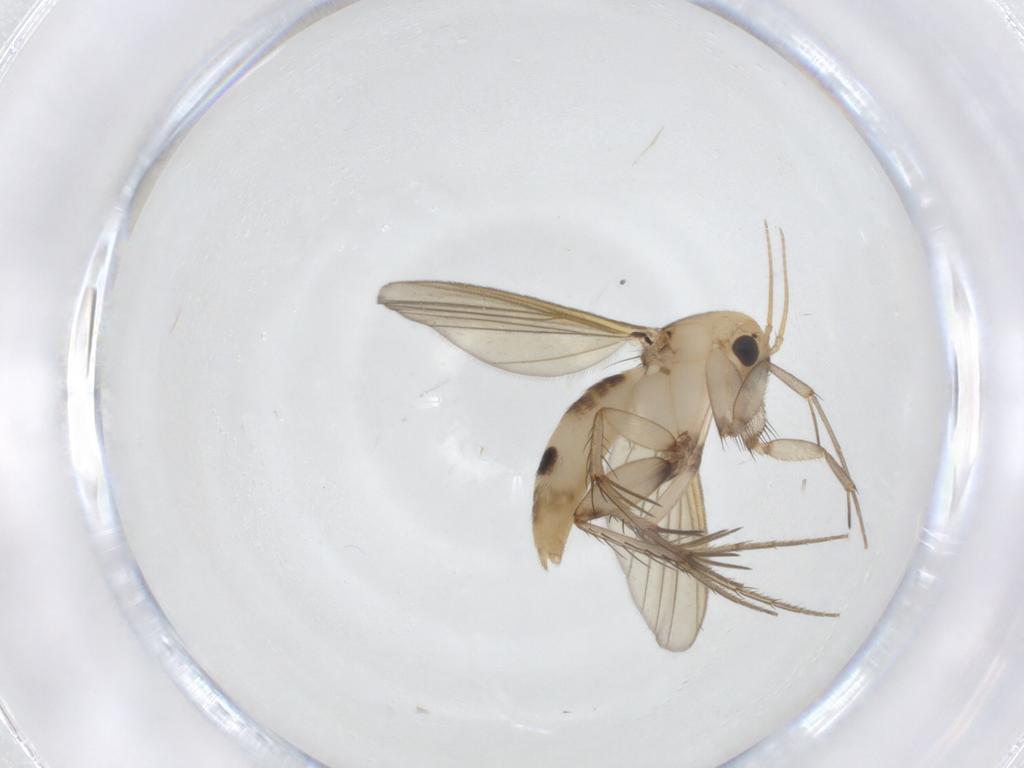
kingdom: Animalia
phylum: Arthropoda
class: Insecta
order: Diptera
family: Mycetophilidae
